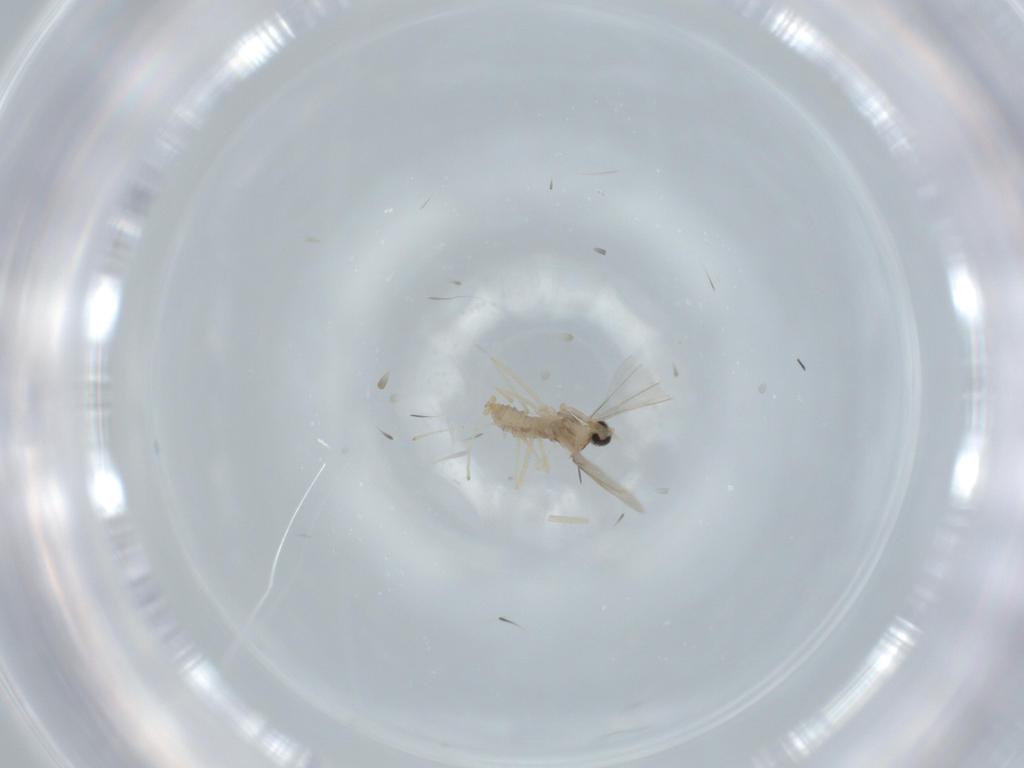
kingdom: Animalia
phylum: Arthropoda
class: Insecta
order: Diptera
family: Cecidomyiidae
